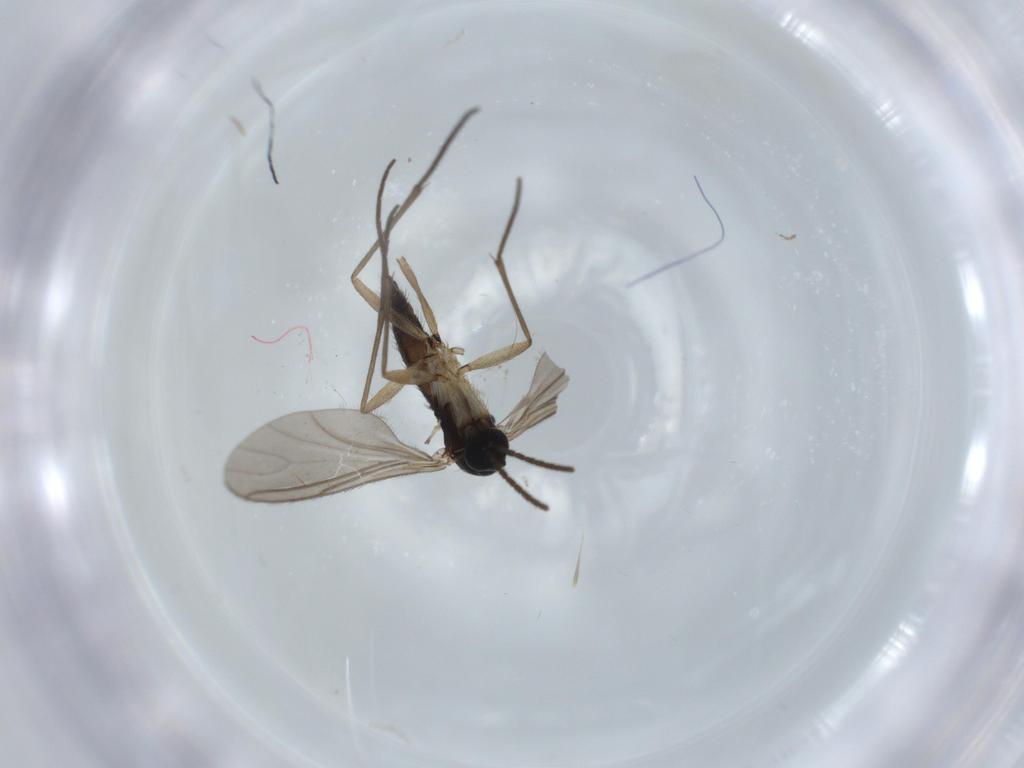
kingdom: Animalia
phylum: Arthropoda
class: Insecta
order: Diptera
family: Sciaridae
